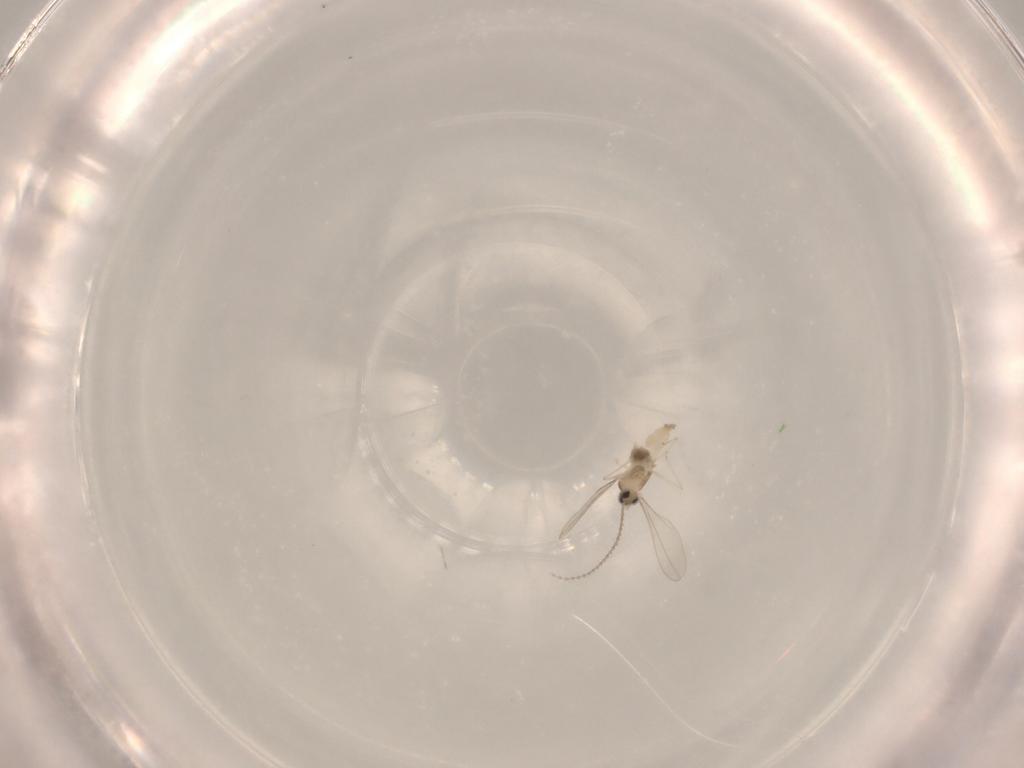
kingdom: Animalia
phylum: Arthropoda
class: Insecta
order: Diptera
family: Cecidomyiidae
